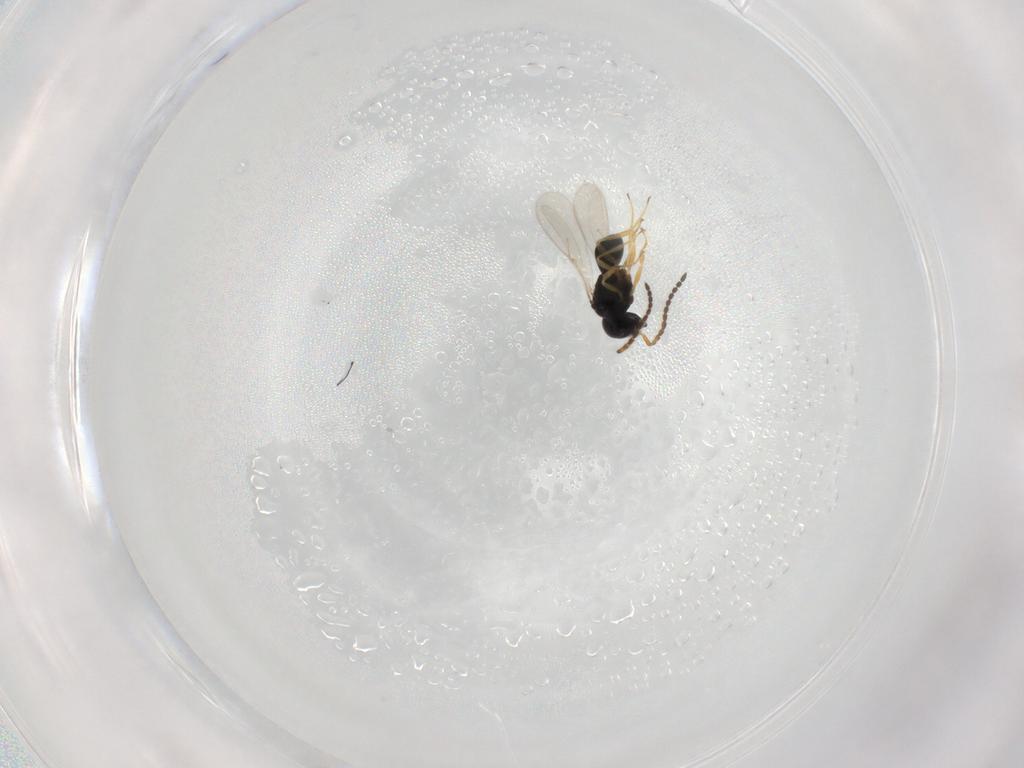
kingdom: Animalia
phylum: Arthropoda
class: Insecta
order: Hymenoptera
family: Scelionidae
